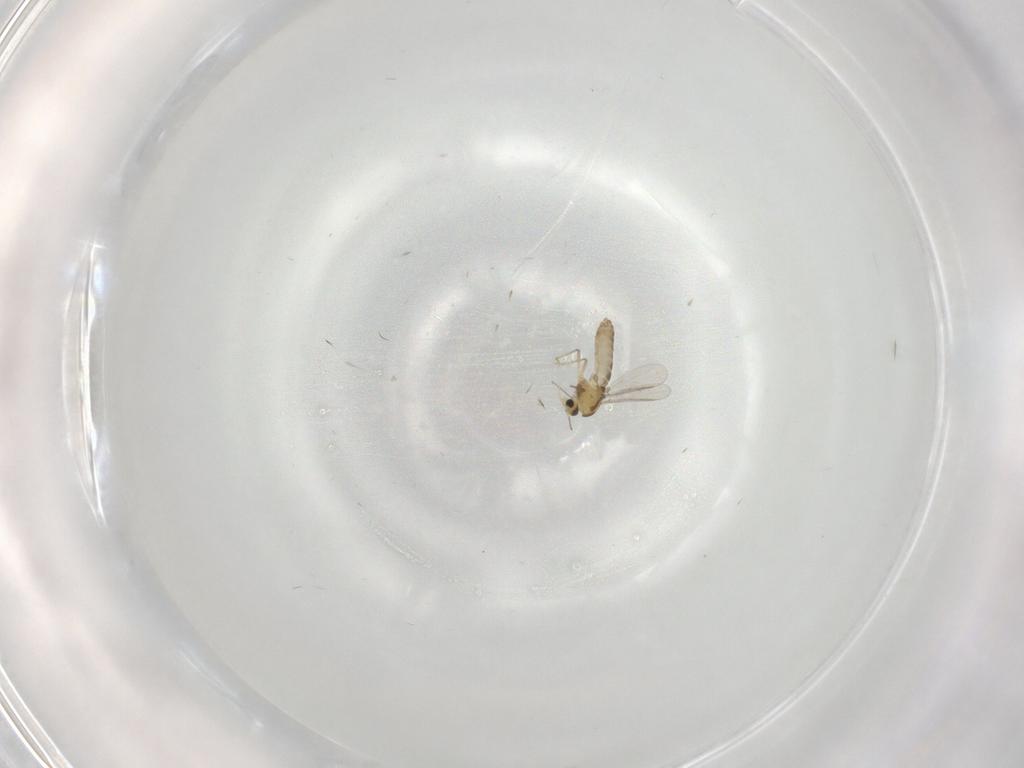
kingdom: Animalia
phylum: Arthropoda
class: Insecta
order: Diptera
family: Chironomidae
